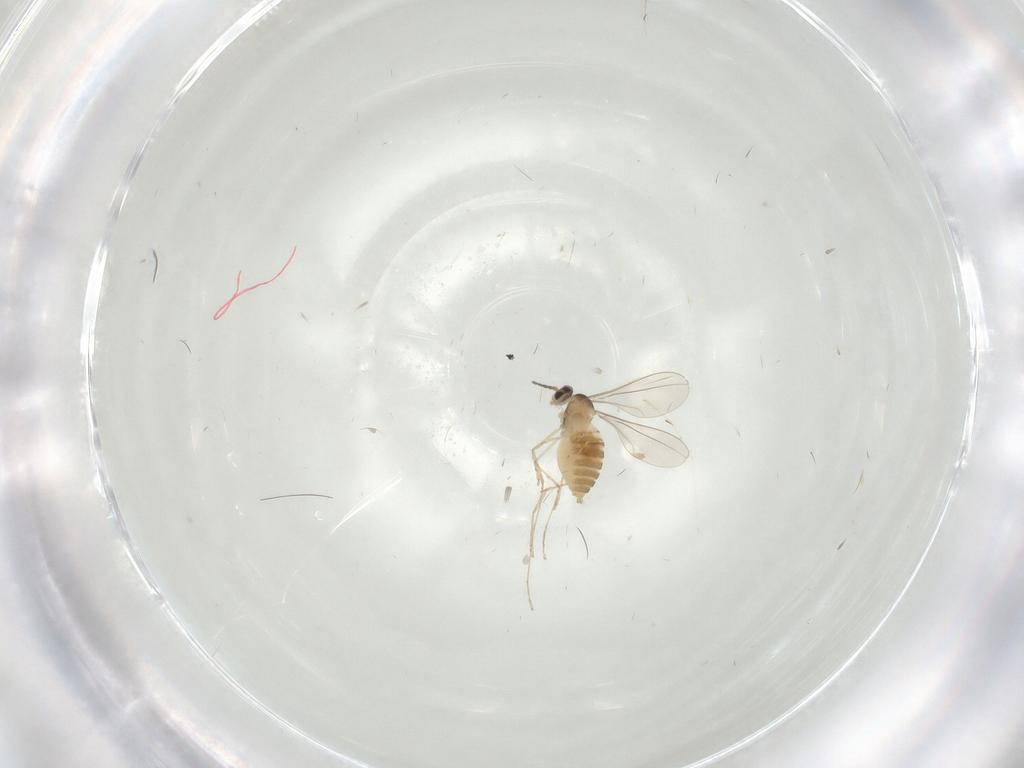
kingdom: Animalia
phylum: Arthropoda
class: Insecta
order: Diptera
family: Cecidomyiidae
